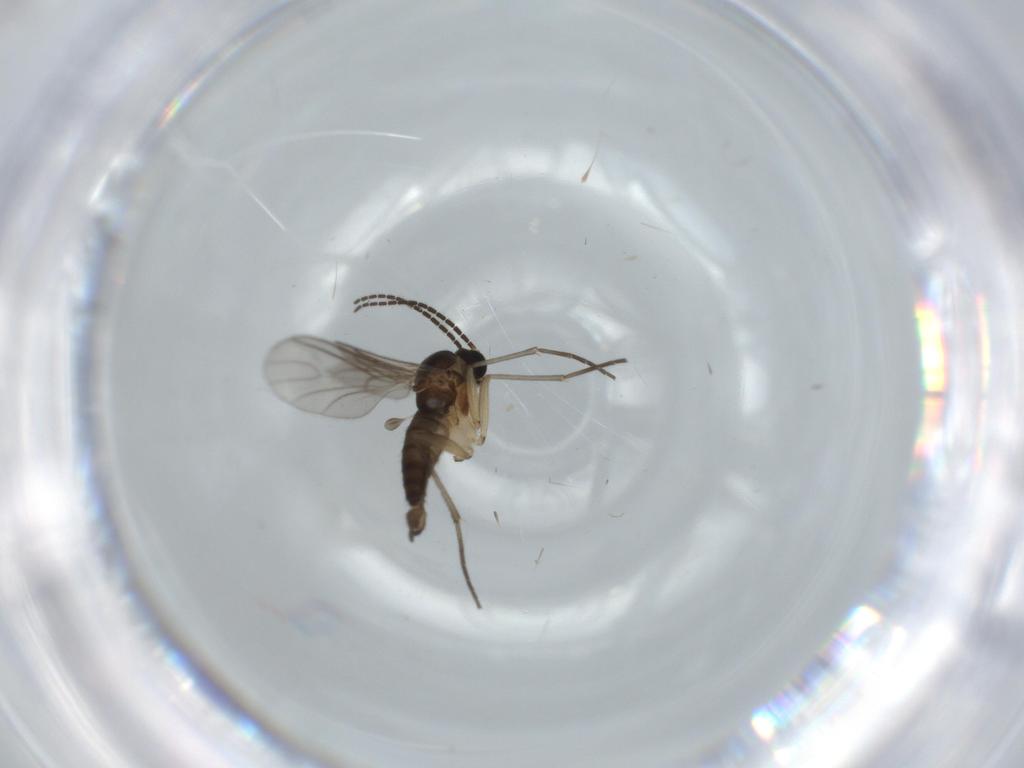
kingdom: Animalia
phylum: Arthropoda
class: Insecta
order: Diptera
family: Sciaridae
